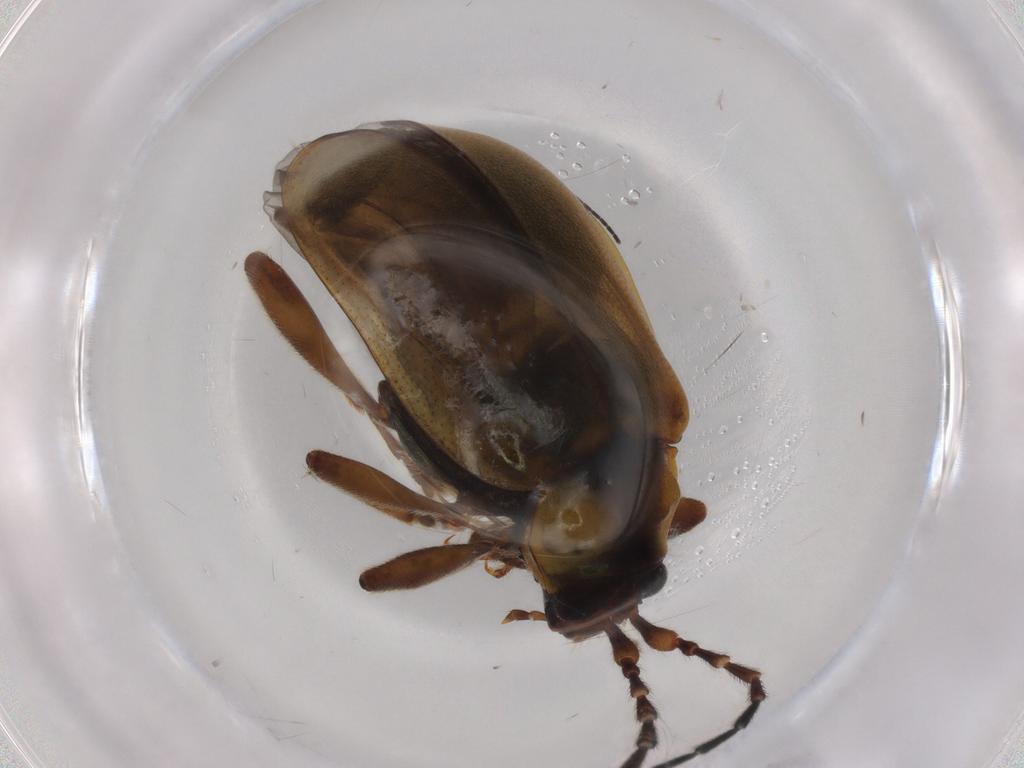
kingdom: Animalia
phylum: Arthropoda
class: Insecta
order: Coleoptera
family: Chrysomelidae
